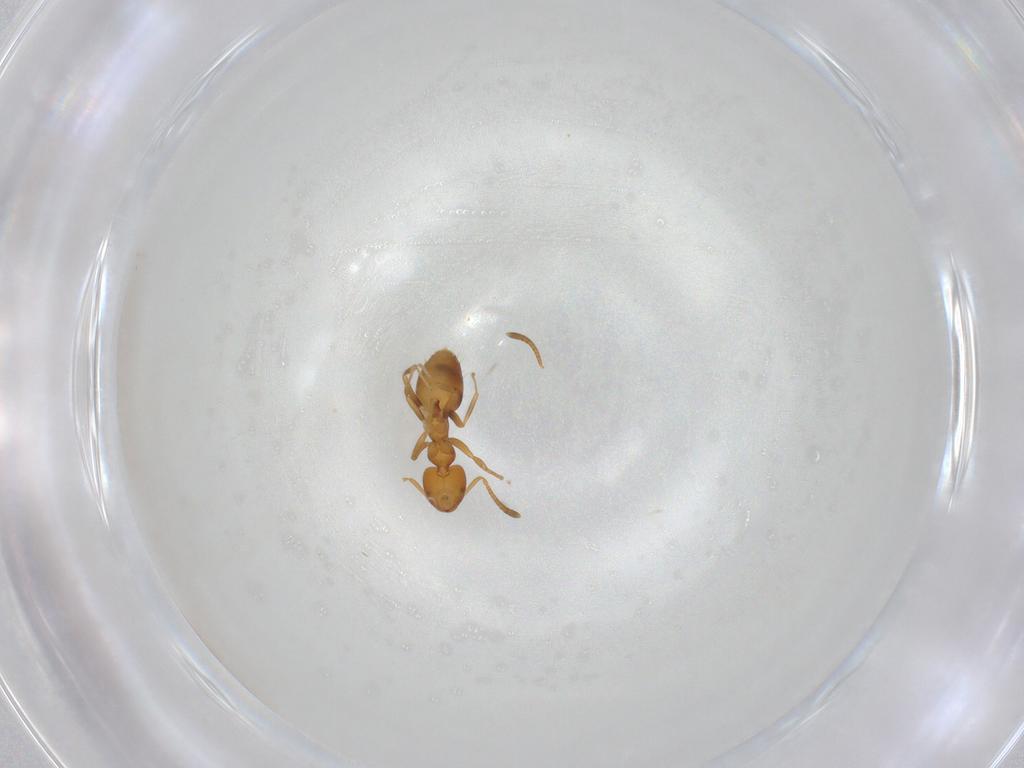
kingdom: Animalia
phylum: Arthropoda
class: Insecta
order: Hymenoptera
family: Formicidae
